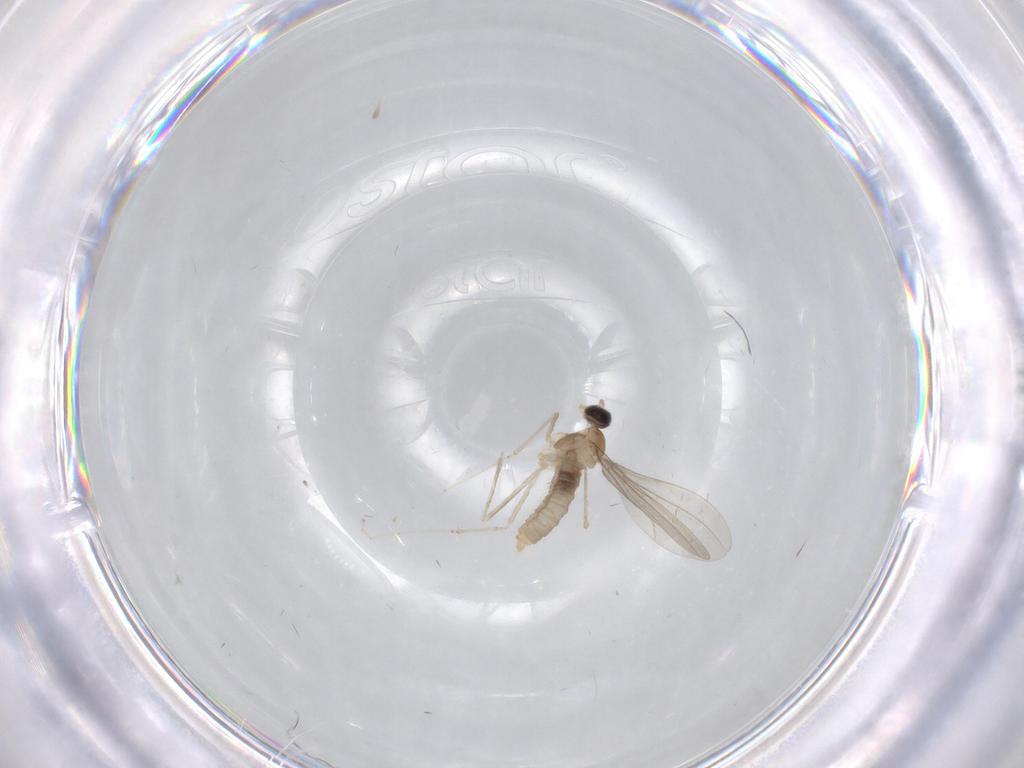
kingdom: Animalia
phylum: Arthropoda
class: Insecta
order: Diptera
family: Cecidomyiidae
